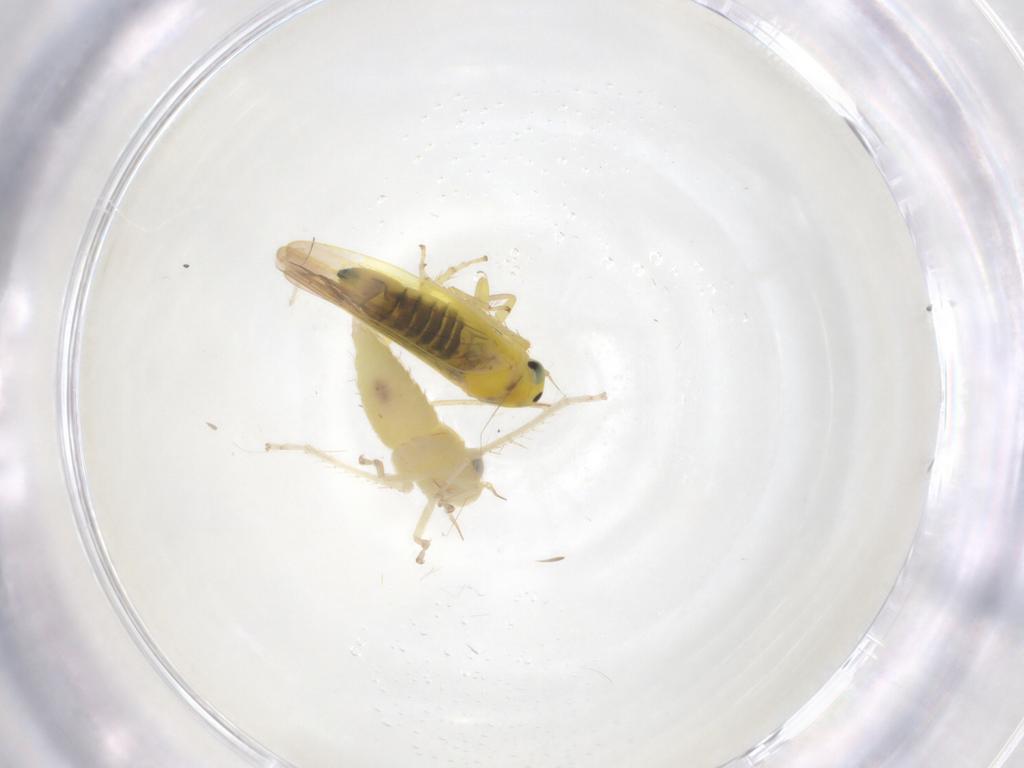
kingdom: Animalia
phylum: Arthropoda
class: Insecta
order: Hemiptera
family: Cicadellidae
